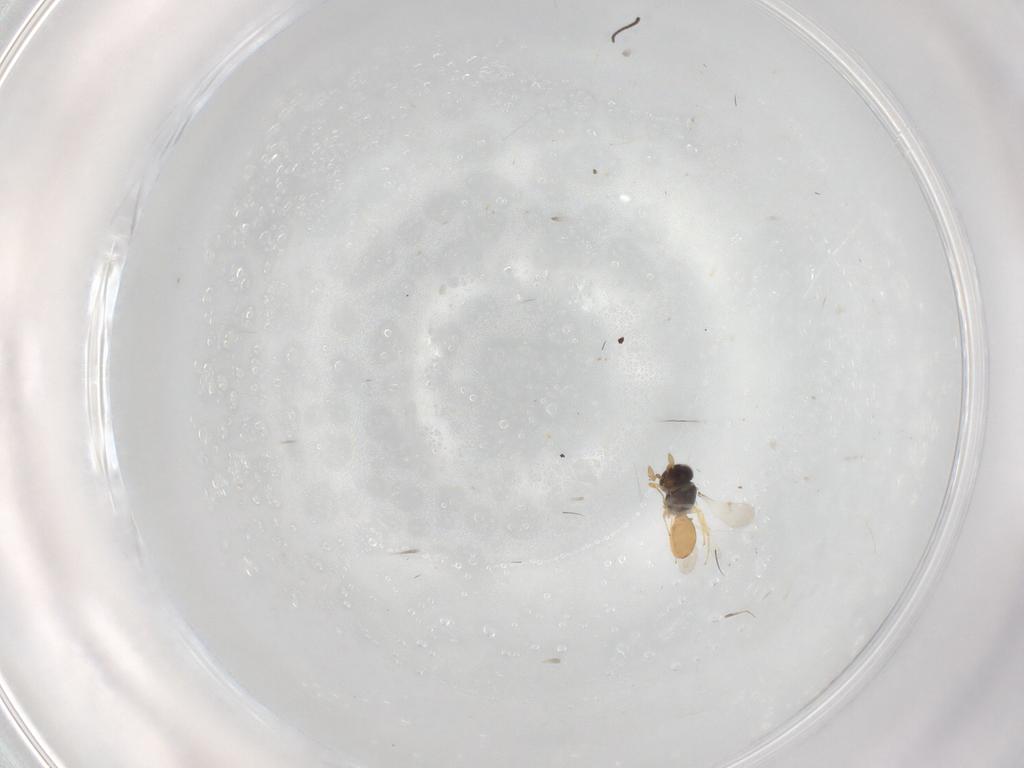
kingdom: Animalia
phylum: Arthropoda
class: Insecta
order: Hymenoptera
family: Scelionidae
